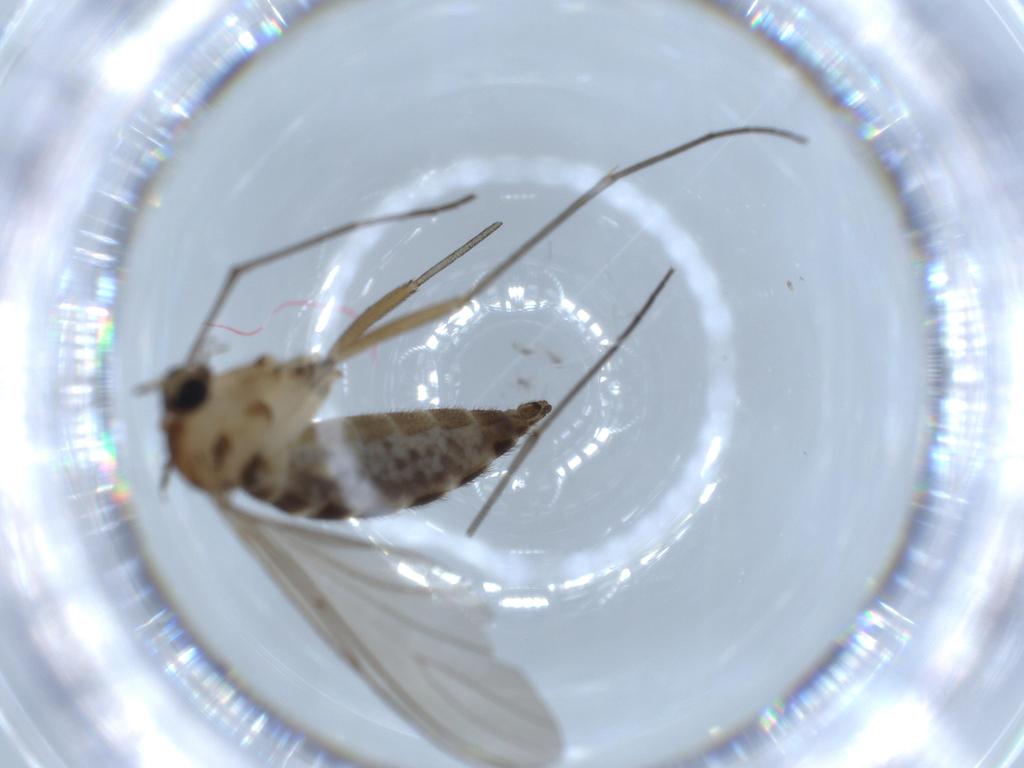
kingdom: Animalia
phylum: Arthropoda
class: Insecta
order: Diptera
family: Sciaridae
